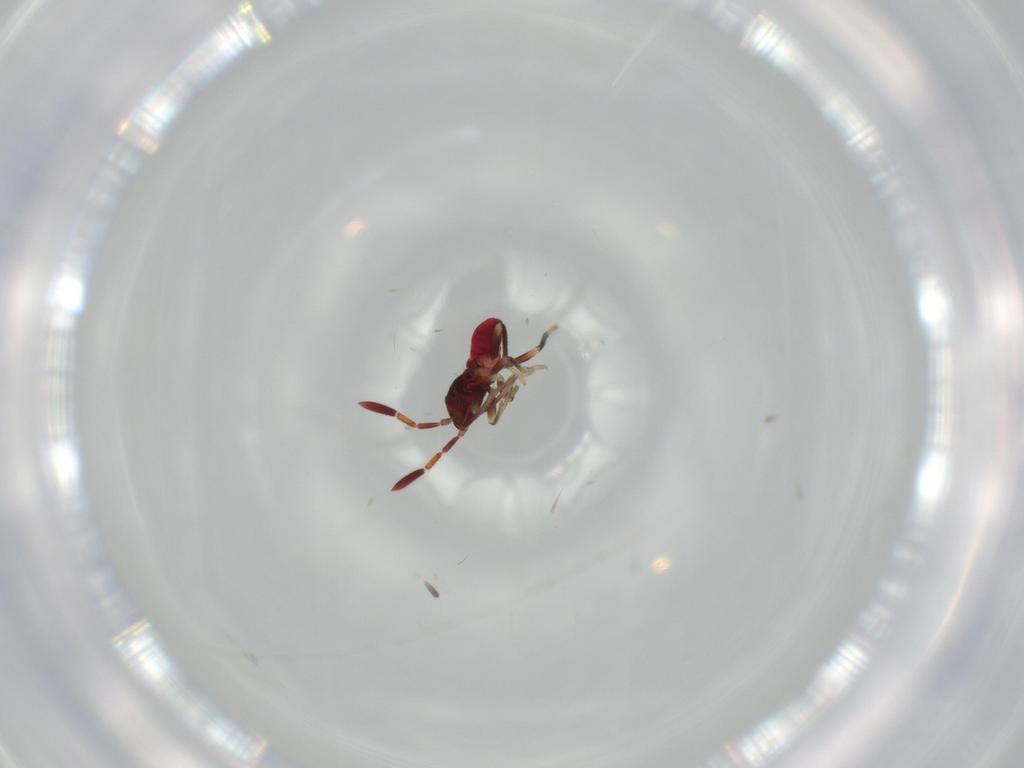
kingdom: Animalia
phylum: Arthropoda
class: Insecta
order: Hemiptera
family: Rhyparochromidae
